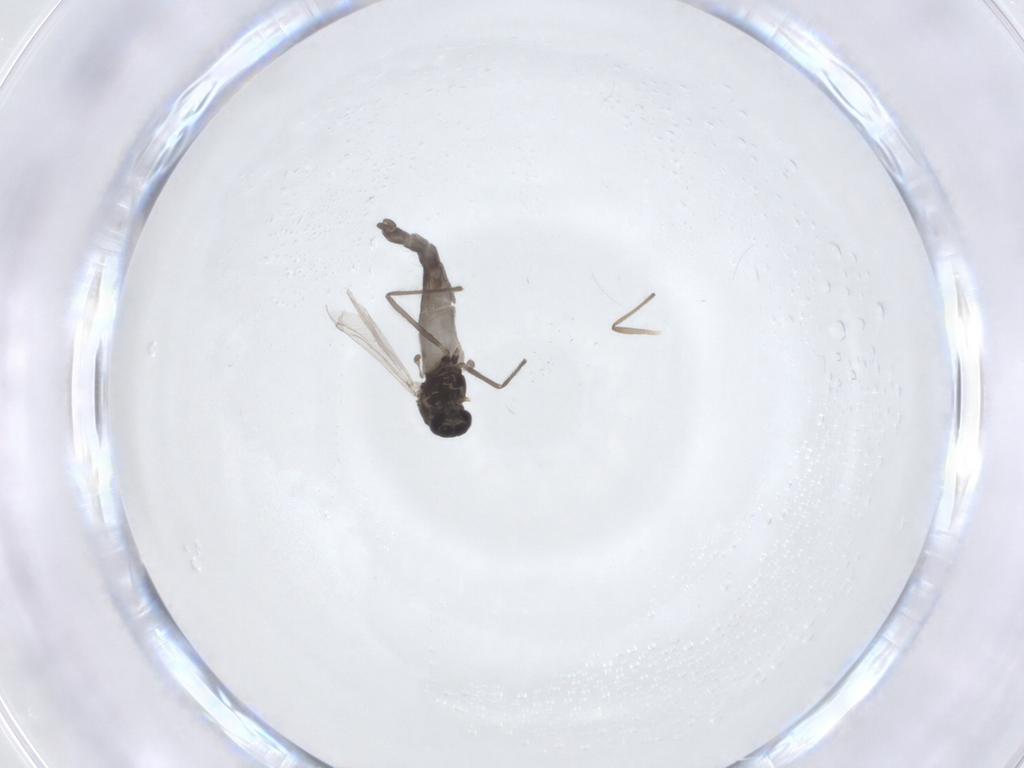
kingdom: Animalia
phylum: Arthropoda
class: Insecta
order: Diptera
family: Chironomidae
